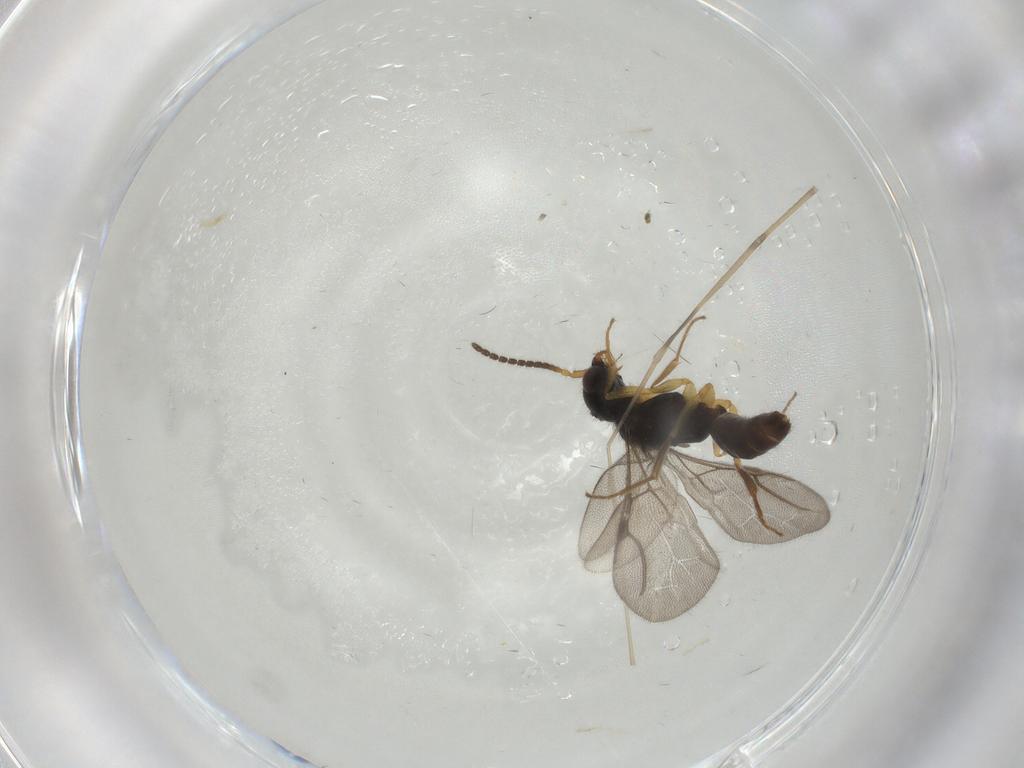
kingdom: Animalia
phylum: Arthropoda
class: Insecta
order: Hymenoptera
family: Bethylidae
